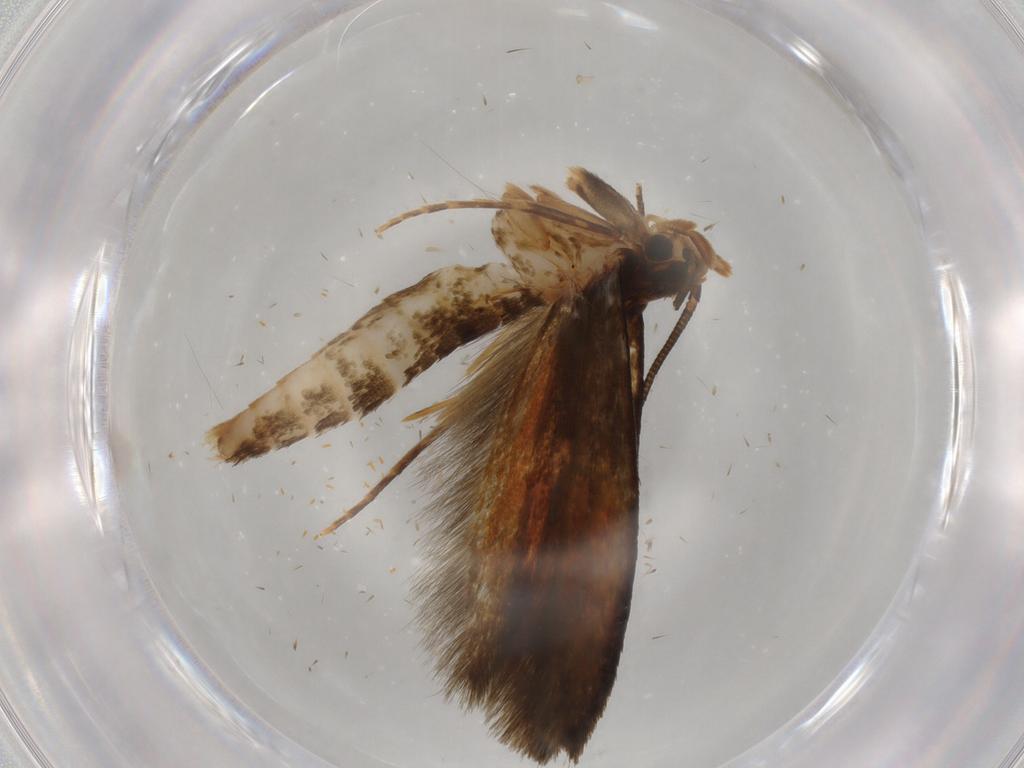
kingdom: Animalia
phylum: Arthropoda
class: Insecta
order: Lepidoptera
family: Tineidae
